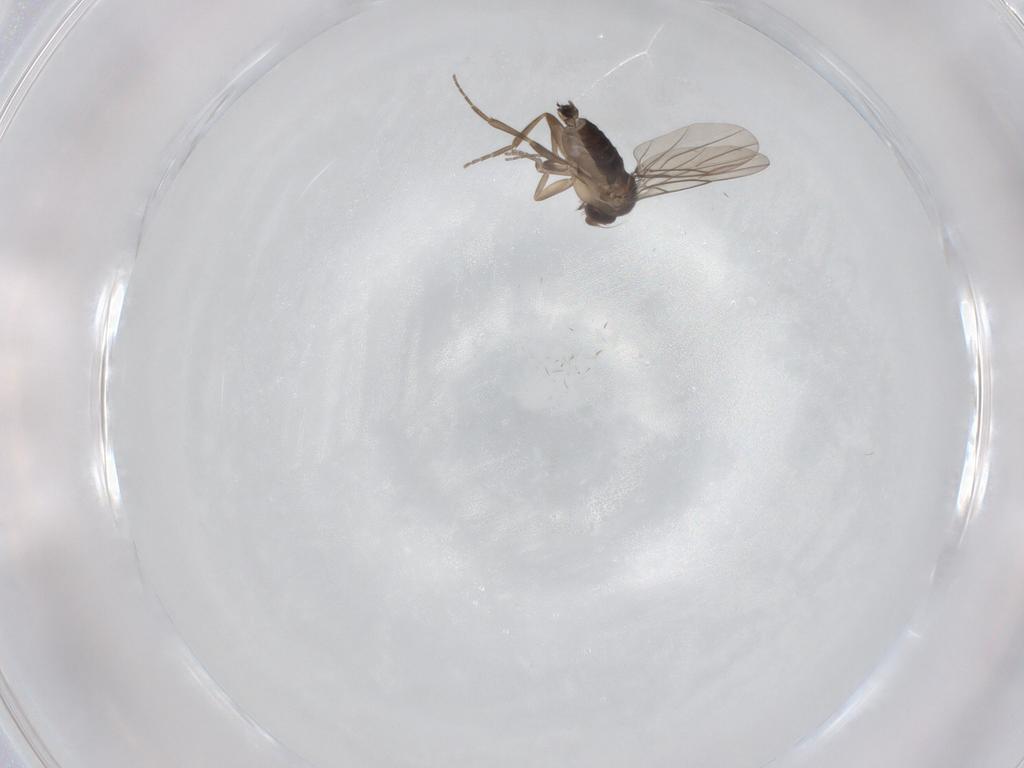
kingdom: Animalia
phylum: Arthropoda
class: Insecta
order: Diptera
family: Phoridae
